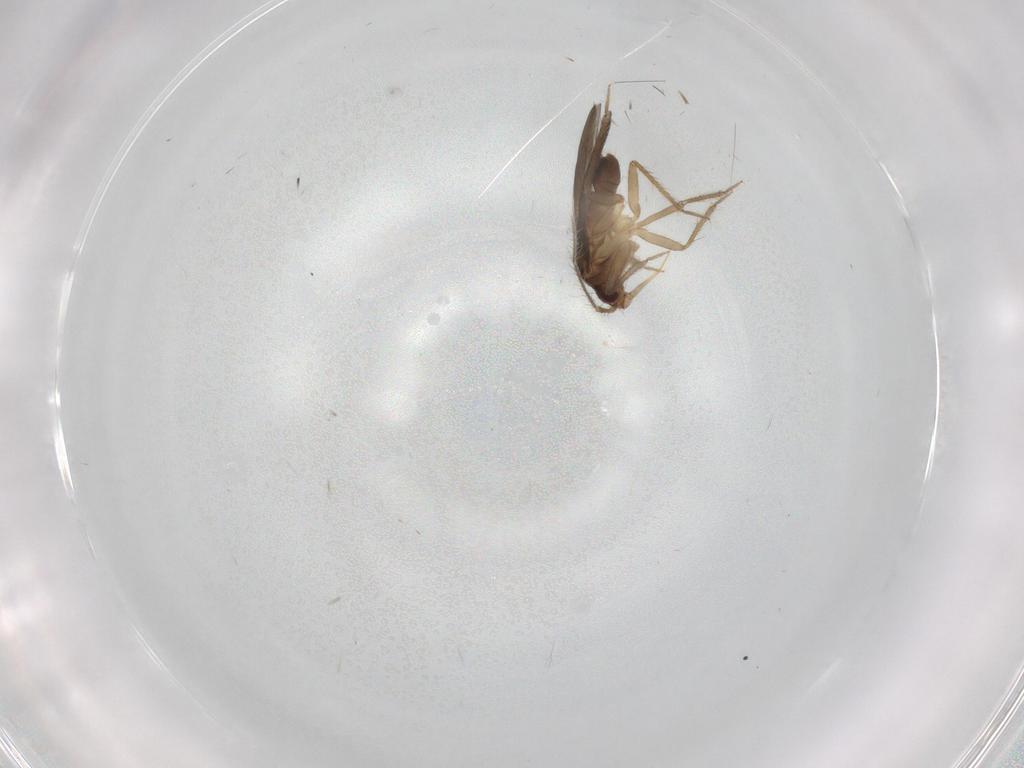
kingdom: Animalia
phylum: Arthropoda
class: Insecta
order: Hemiptera
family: Ceratocombidae
